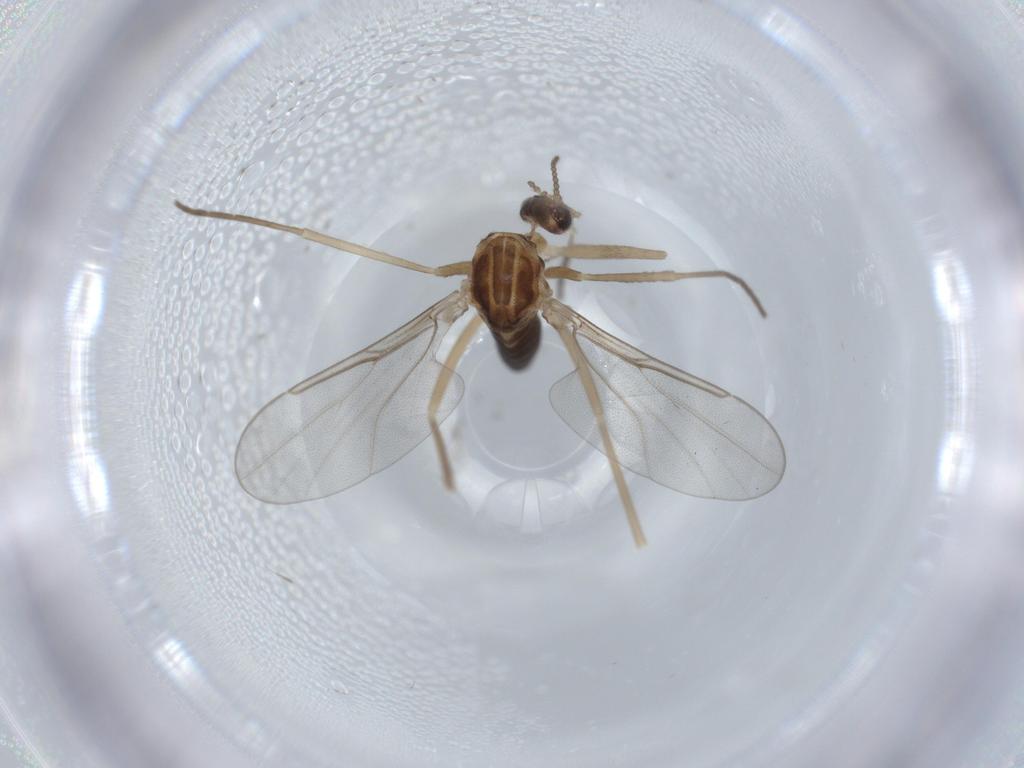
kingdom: Animalia
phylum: Arthropoda
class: Insecta
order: Diptera
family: Cecidomyiidae
